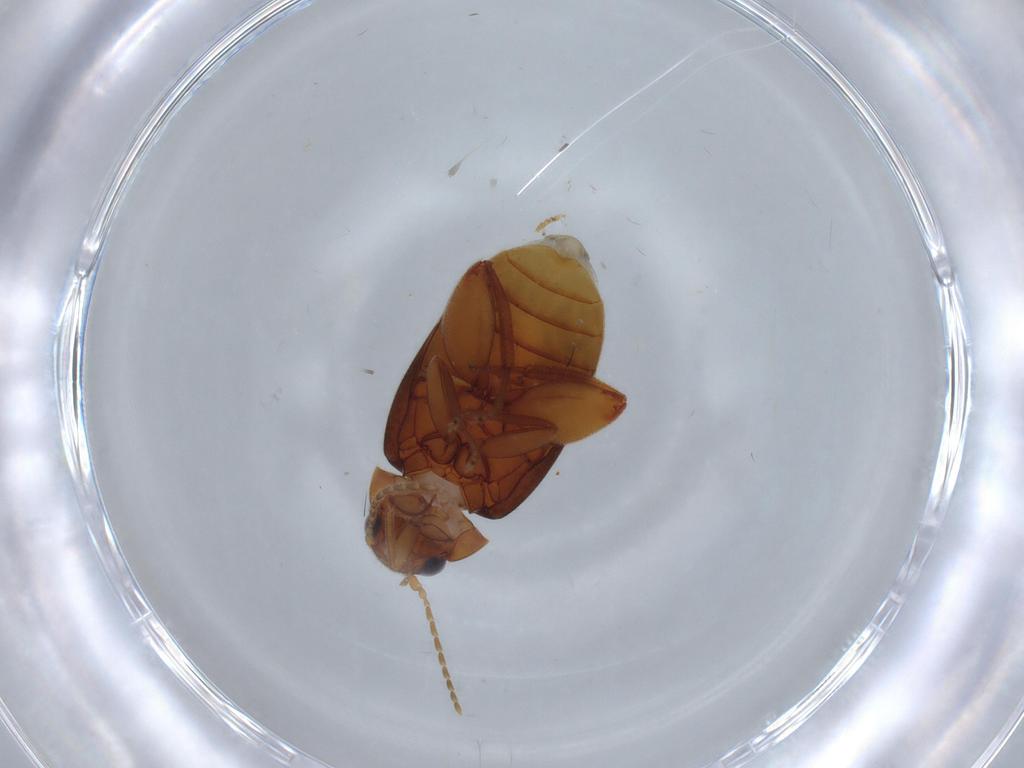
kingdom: Animalia
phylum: Arthropoda
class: Insecta
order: Coleoptera
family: Scirtidae
